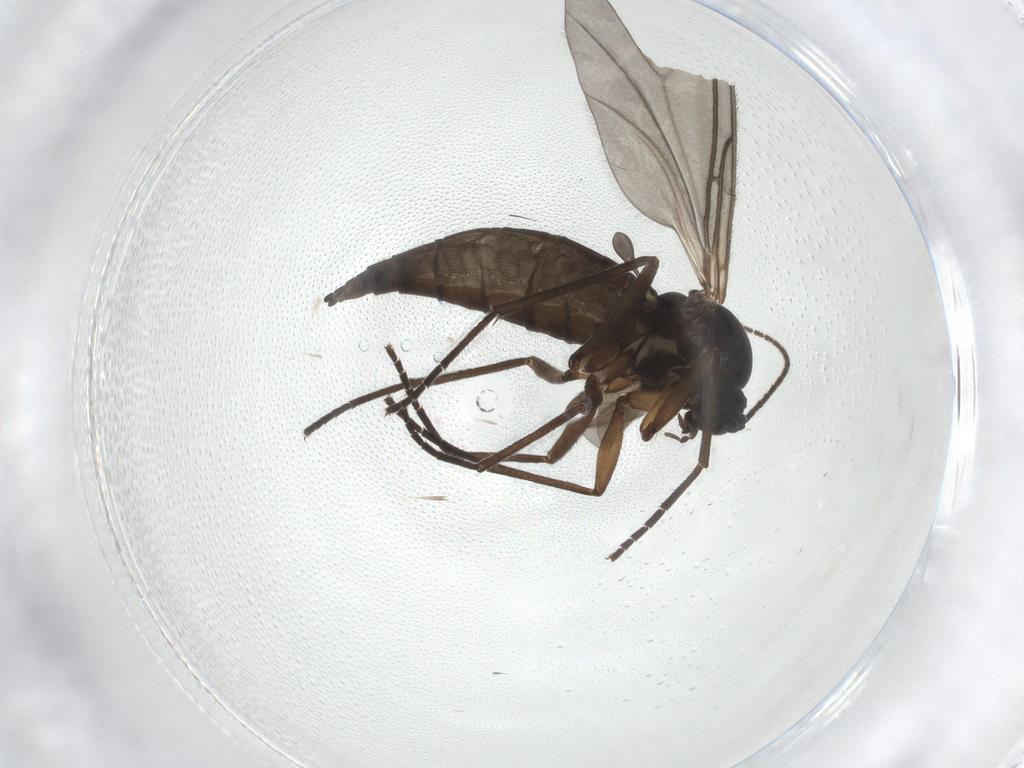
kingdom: Animalia
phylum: Arthropoda
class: Insecta
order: Diptera
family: Sciaridae
